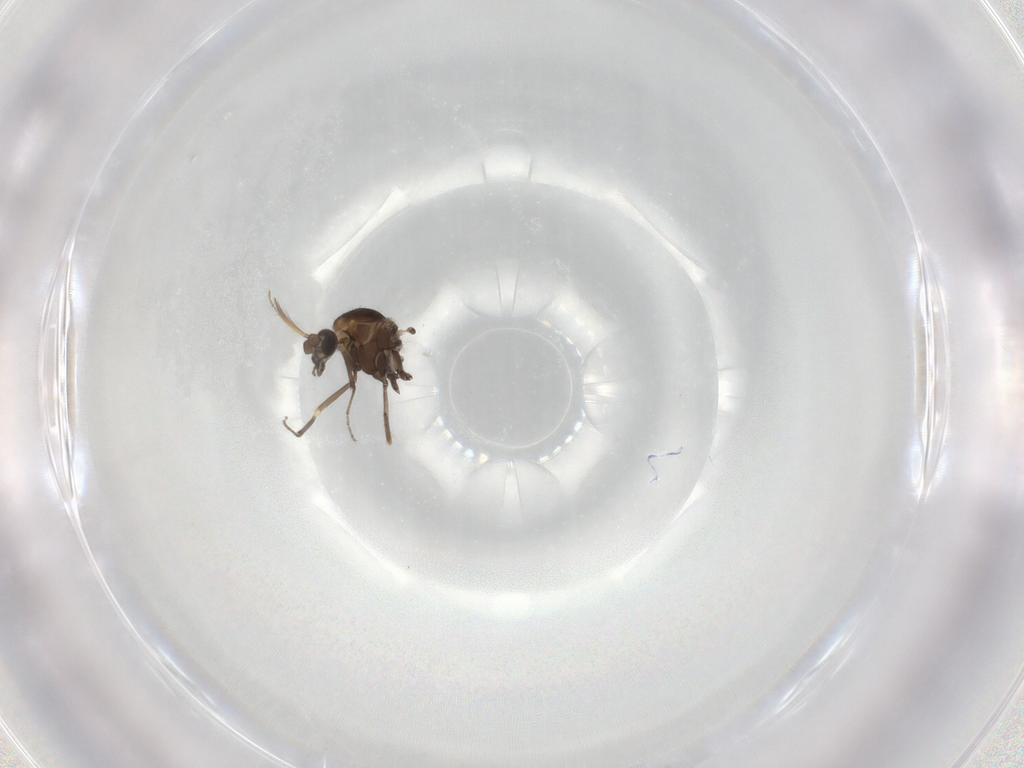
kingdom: Animalia
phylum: Arthropoda
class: Insecta
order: Diptera
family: Ceratopogonidae
